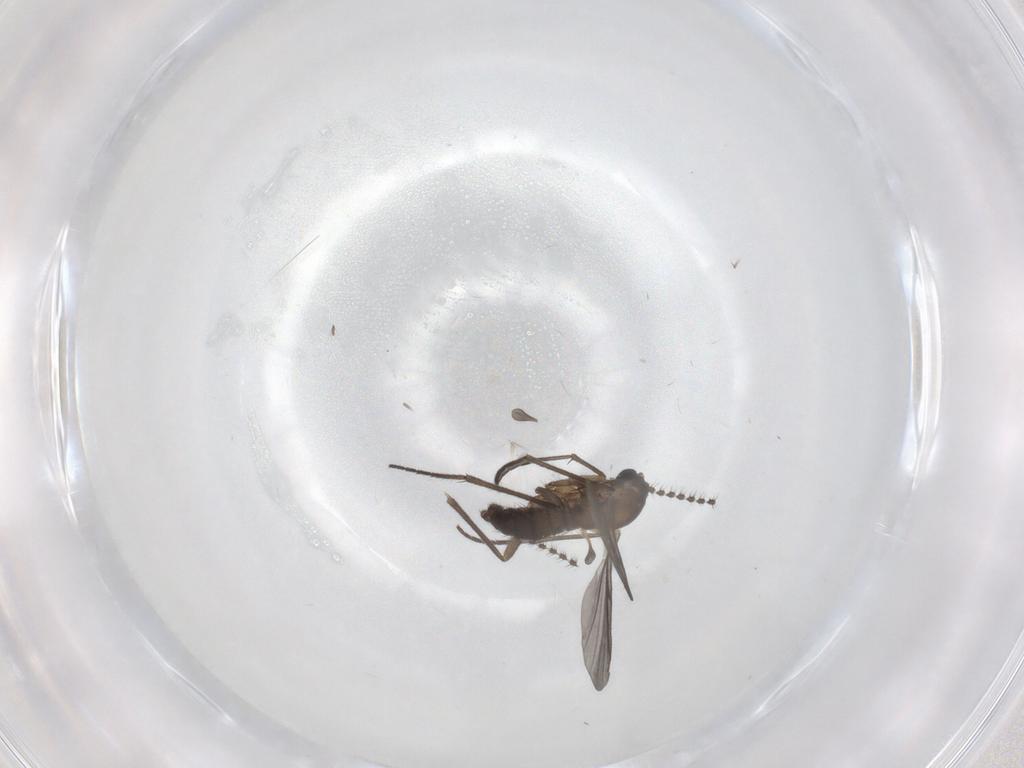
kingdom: Animalia
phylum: Arthropoda
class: Insecta
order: Diptera
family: Sciaridae
